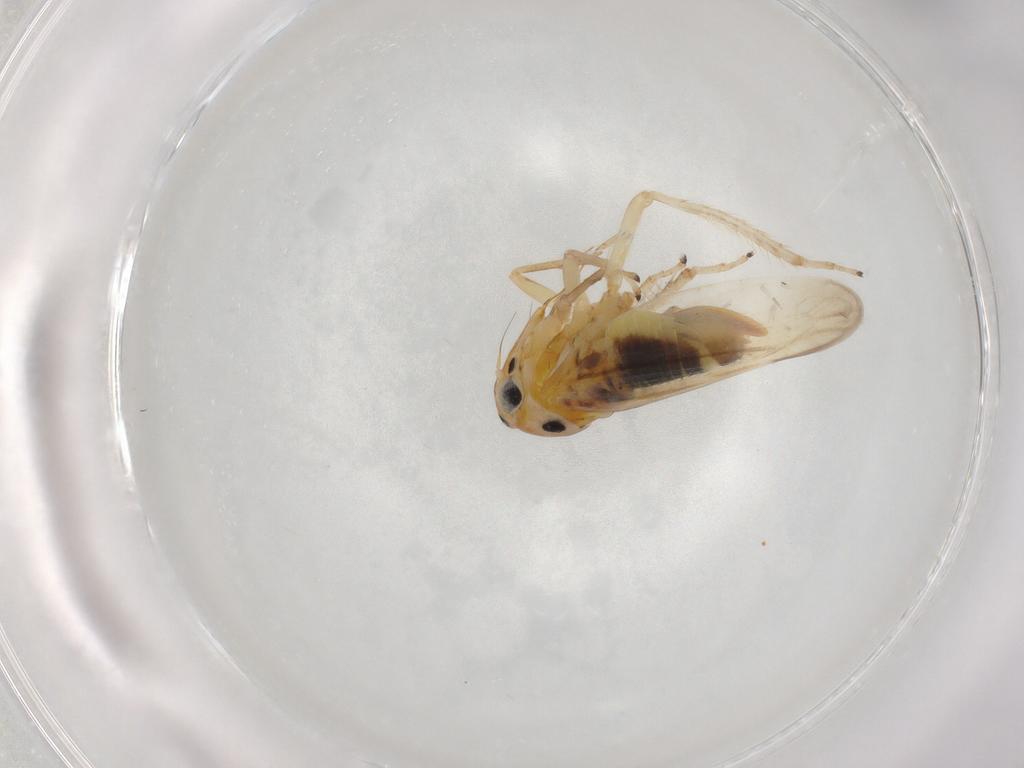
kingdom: Animalia
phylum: Arthropoda
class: Insecta
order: Hemiptera
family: Cicadellidae
